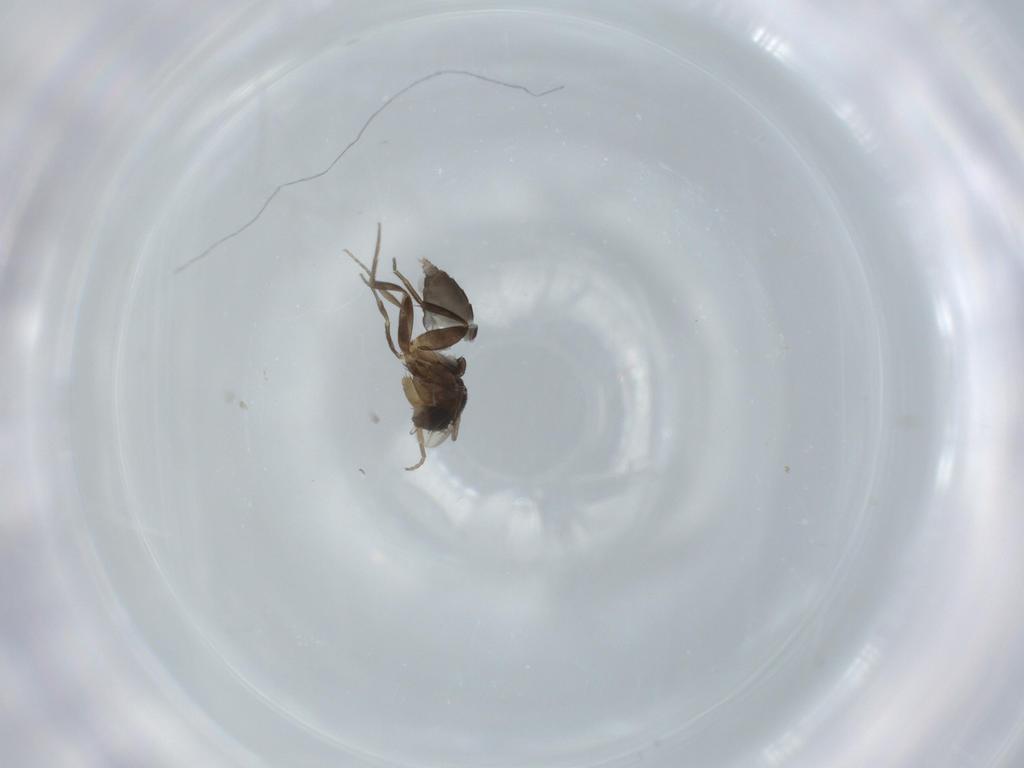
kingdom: Animalia
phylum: Arthropoda
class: Insecta
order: Diptera
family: Phoridae
